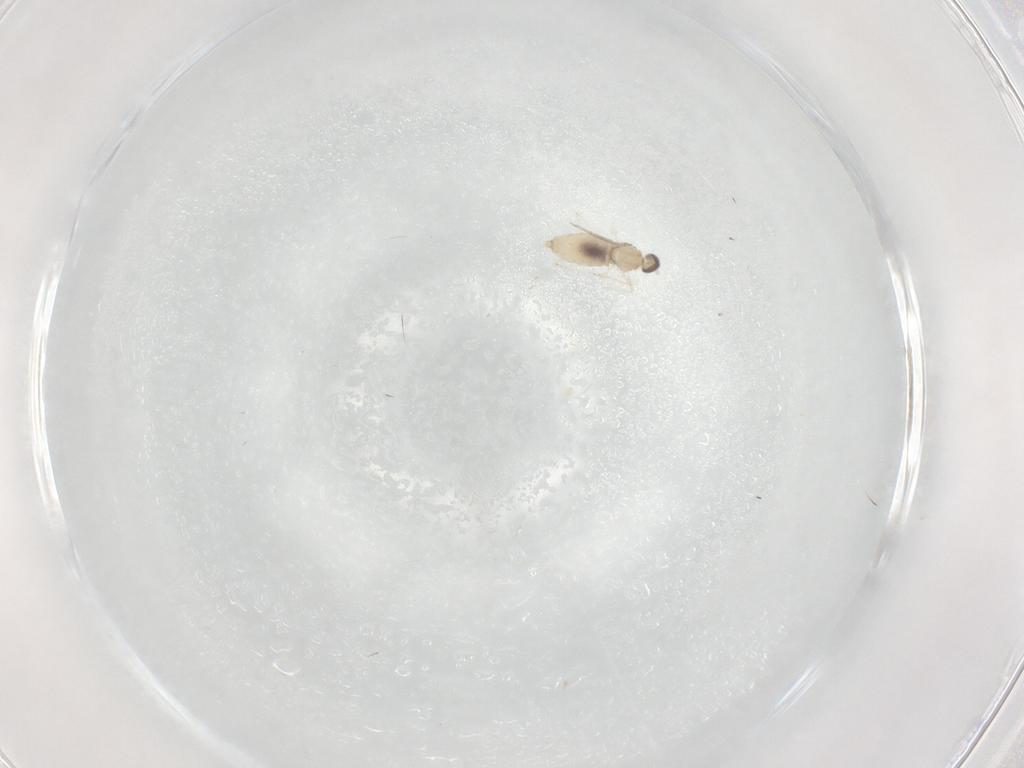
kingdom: Animalia
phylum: Arthropoda
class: Insecta
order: Diptera
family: Cecidomyiidae
